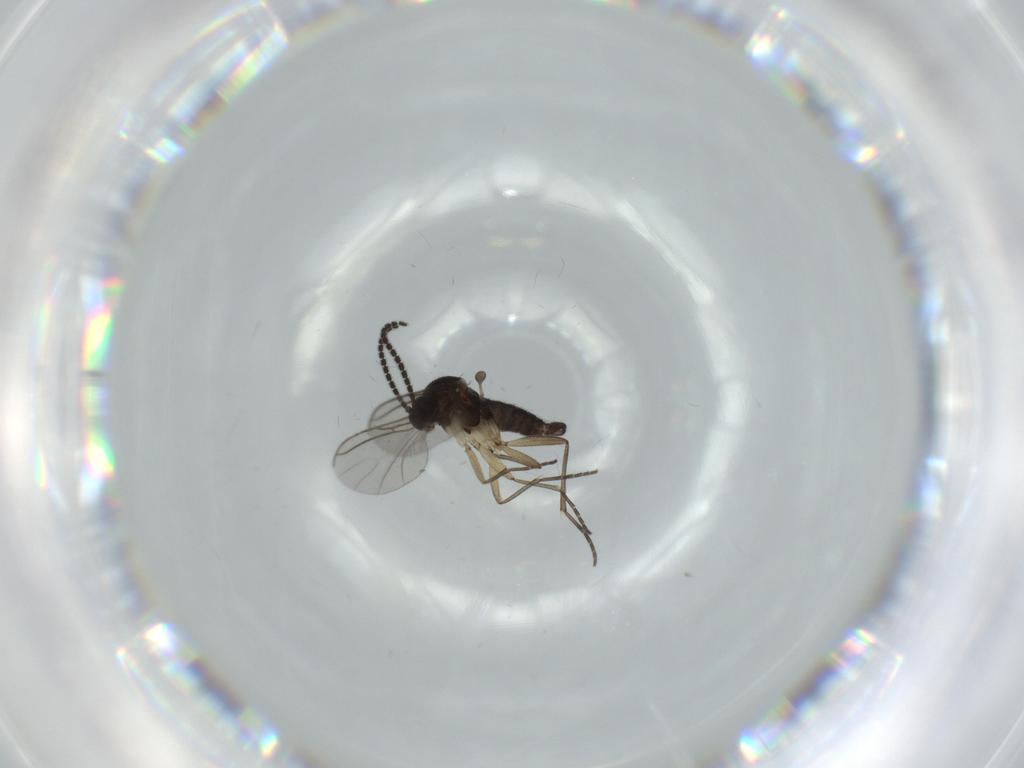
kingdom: Animalia
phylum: Arthropoda
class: Insecta
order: Diptera
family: Sciaridae
